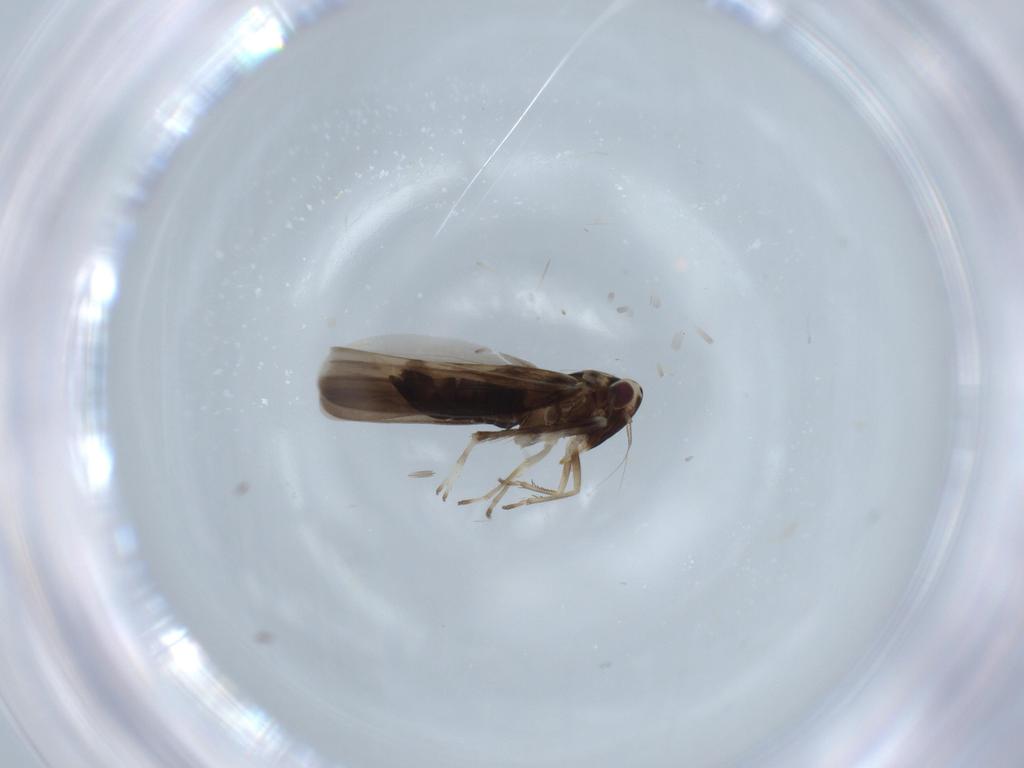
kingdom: Animalia
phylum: Arthropoda
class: Insecta
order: Hemiptera
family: Cicadellidae
